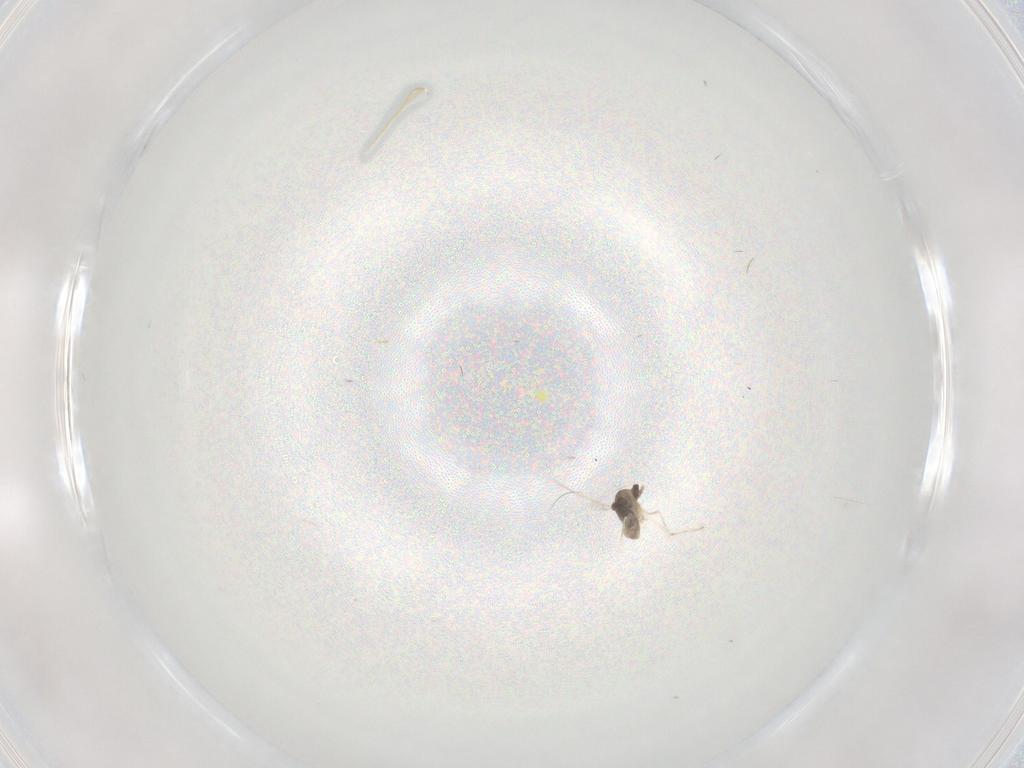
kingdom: Animalia
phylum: Arthropoda
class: Insecta
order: Diptera
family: Cecidomyiidae
